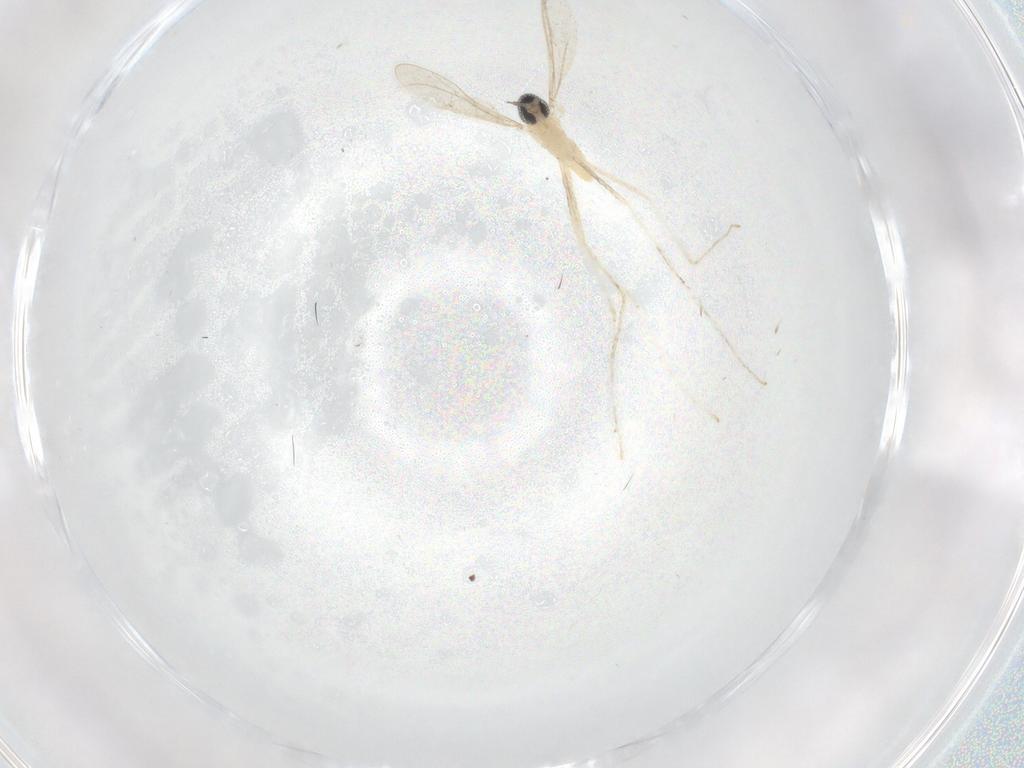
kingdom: Animalia
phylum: Arthropoda
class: Insecta
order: Diptera
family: Cecidomyiidae
